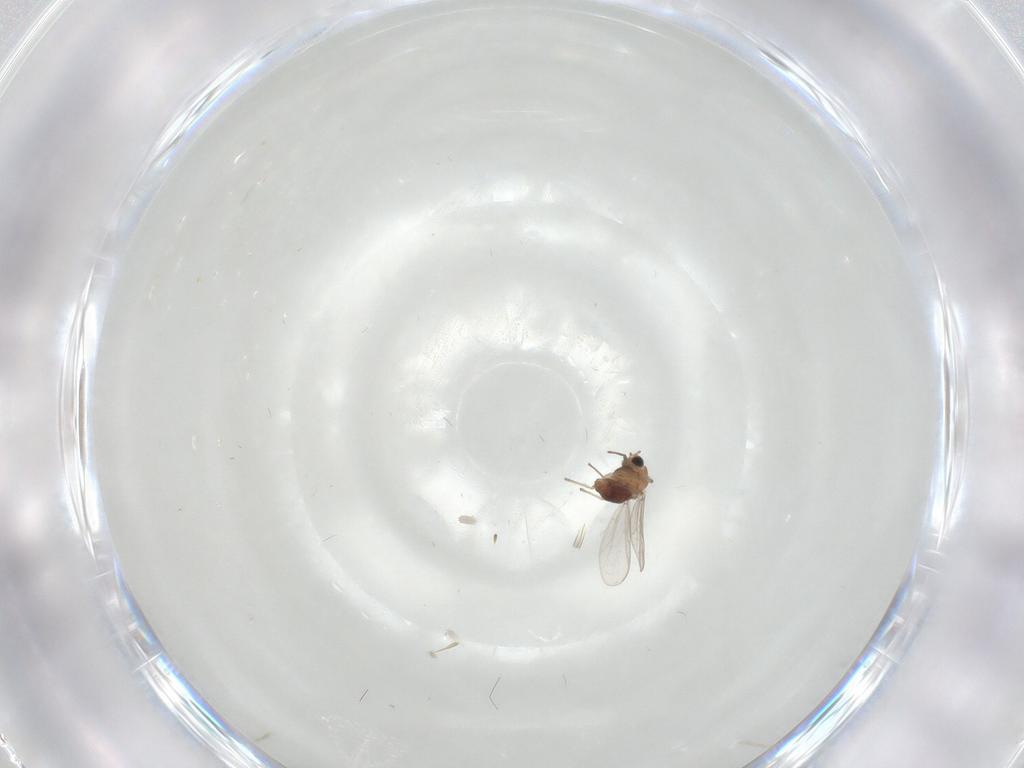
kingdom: Animalia
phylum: Arthropoda
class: Insecta
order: Diptera
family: Chironomidae
